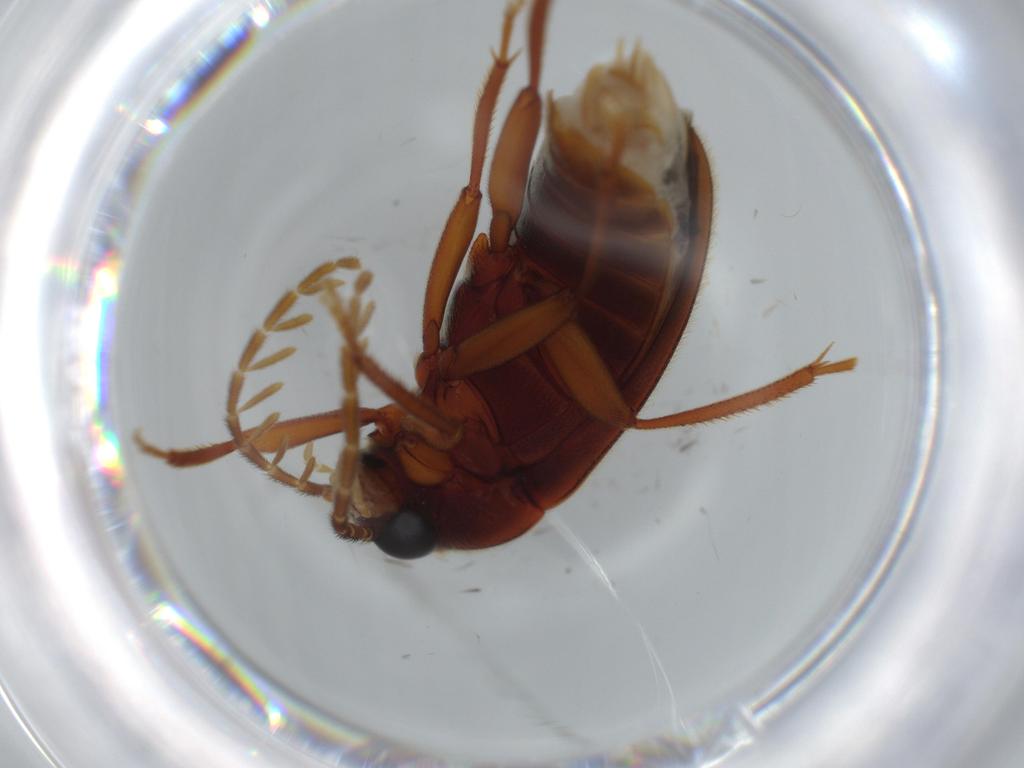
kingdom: Animalia
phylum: Arthropoda
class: Insecta
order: Coleoptera
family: Ptilodactylidae
